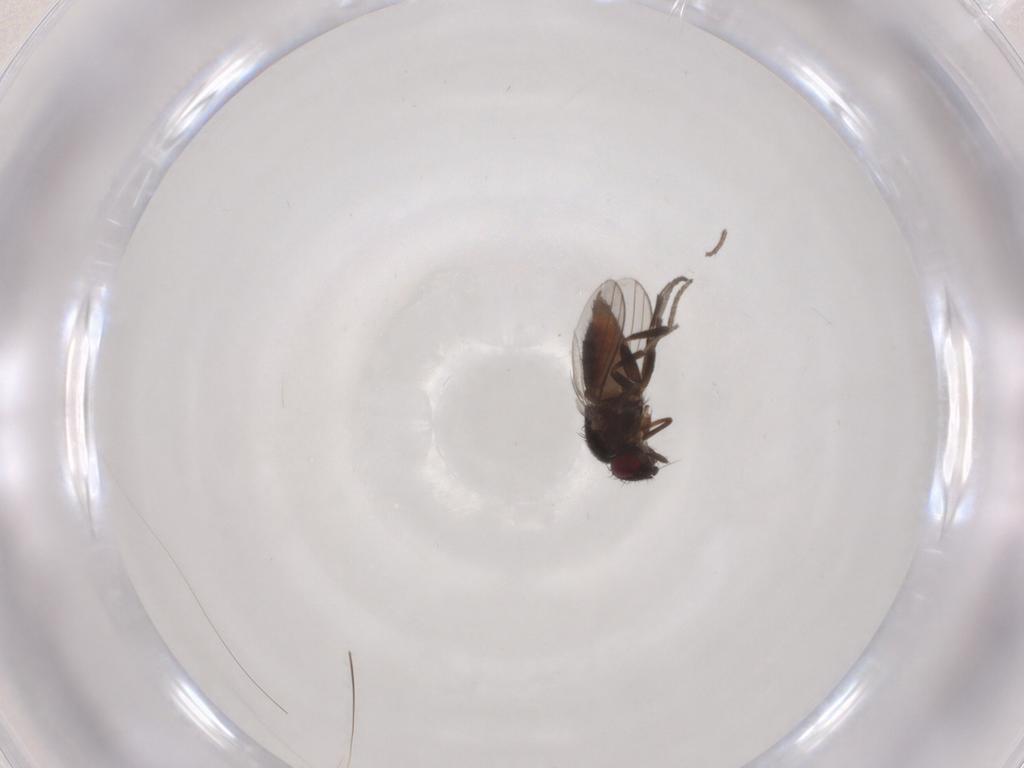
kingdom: Animalia
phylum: Arthropoda
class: Insecta
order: Diptera
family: Milichiidae
